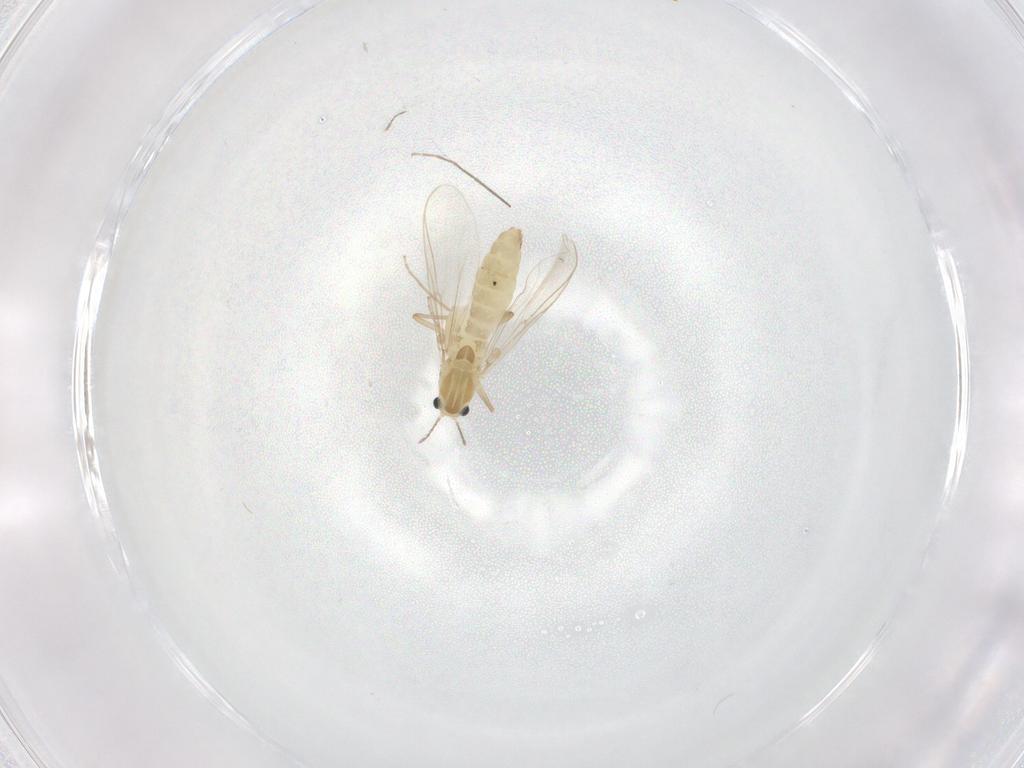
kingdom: Animalia
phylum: Arthropoda
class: Insecta
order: Diptera
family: Chironomidae
